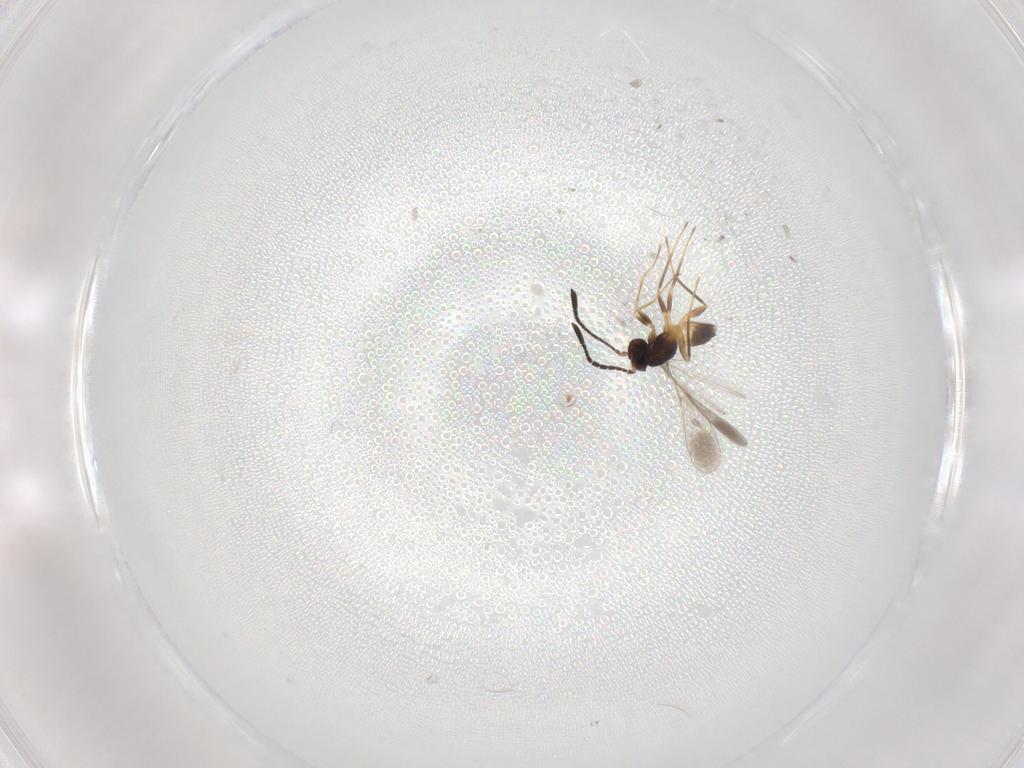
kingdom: Animalia
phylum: Arthropoda
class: Insecta
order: Hymenoptera
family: Mymaridae
